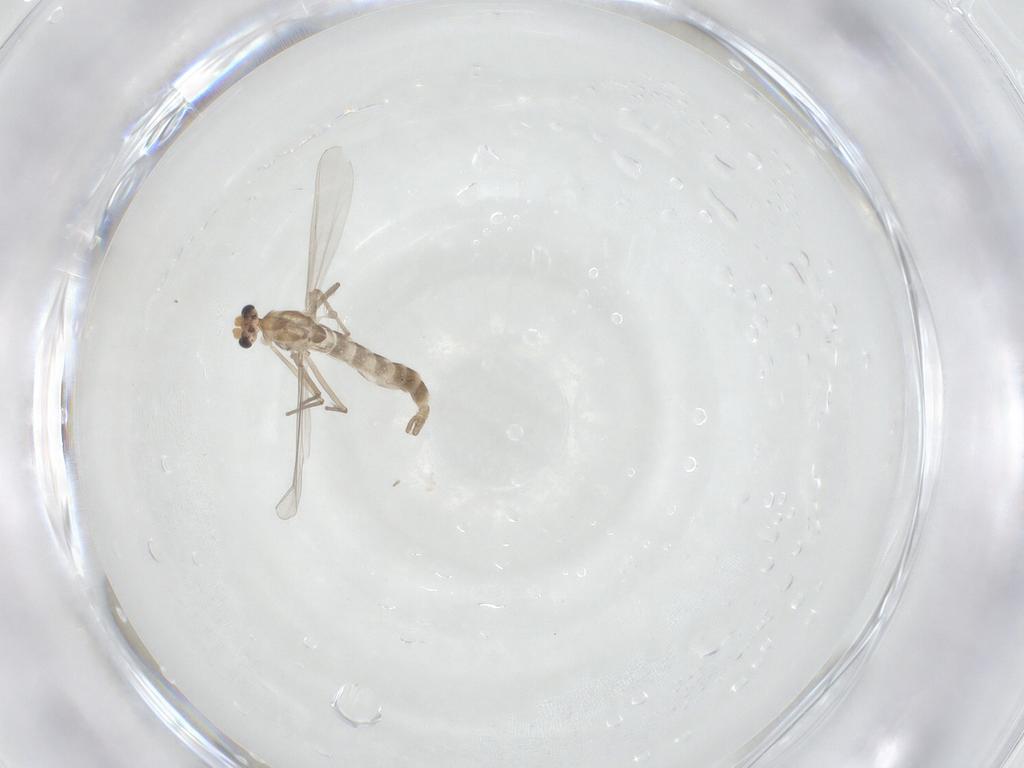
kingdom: Animalia
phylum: Arthropoda
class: Insecta
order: Diptera
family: Chironomidae
